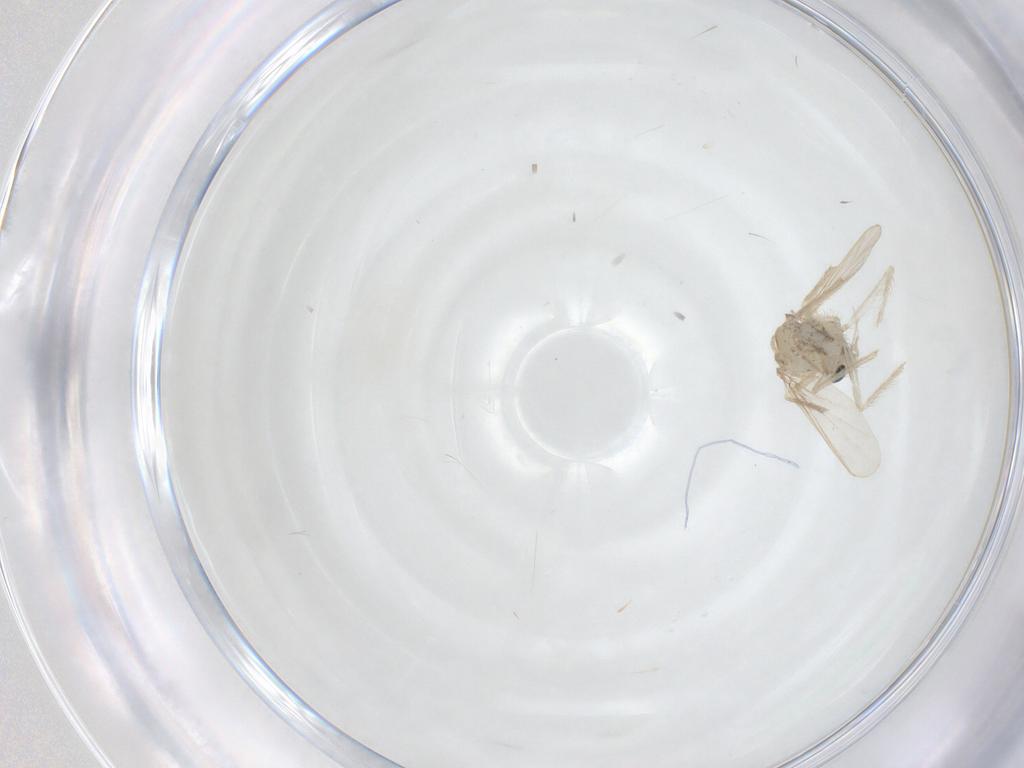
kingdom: Animalia
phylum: Arthropoda
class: Insecta
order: Diptera
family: Chironomidae
